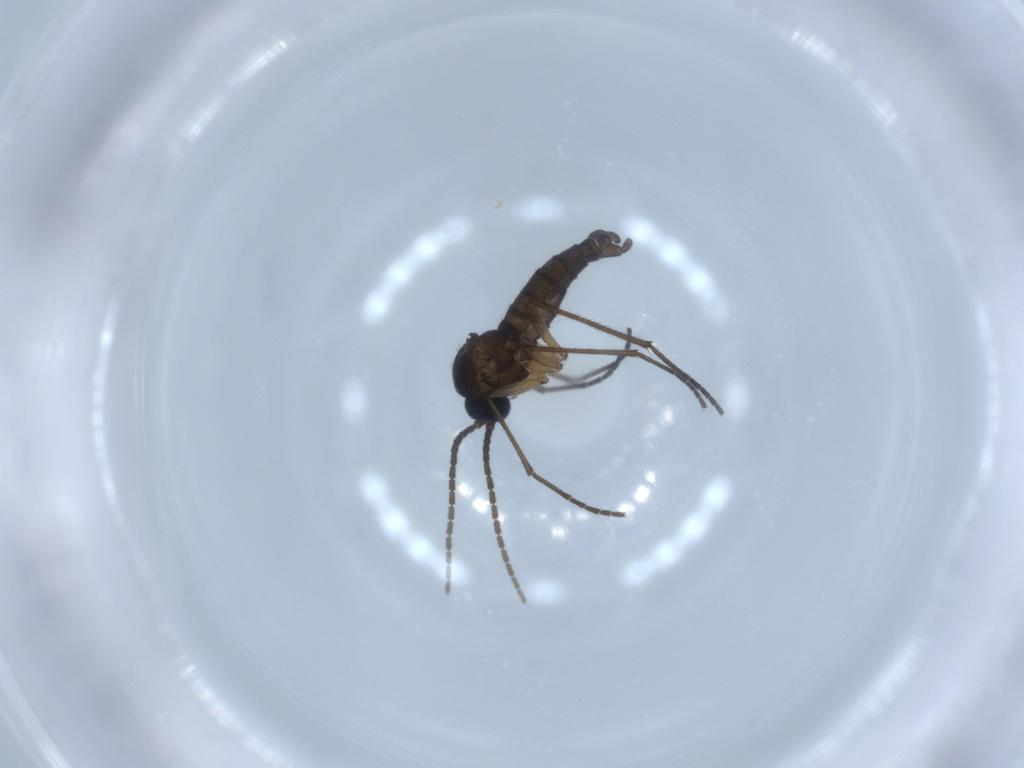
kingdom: Animalia
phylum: Arthropoda
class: Insecta
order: Diptera
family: Sciaridae
